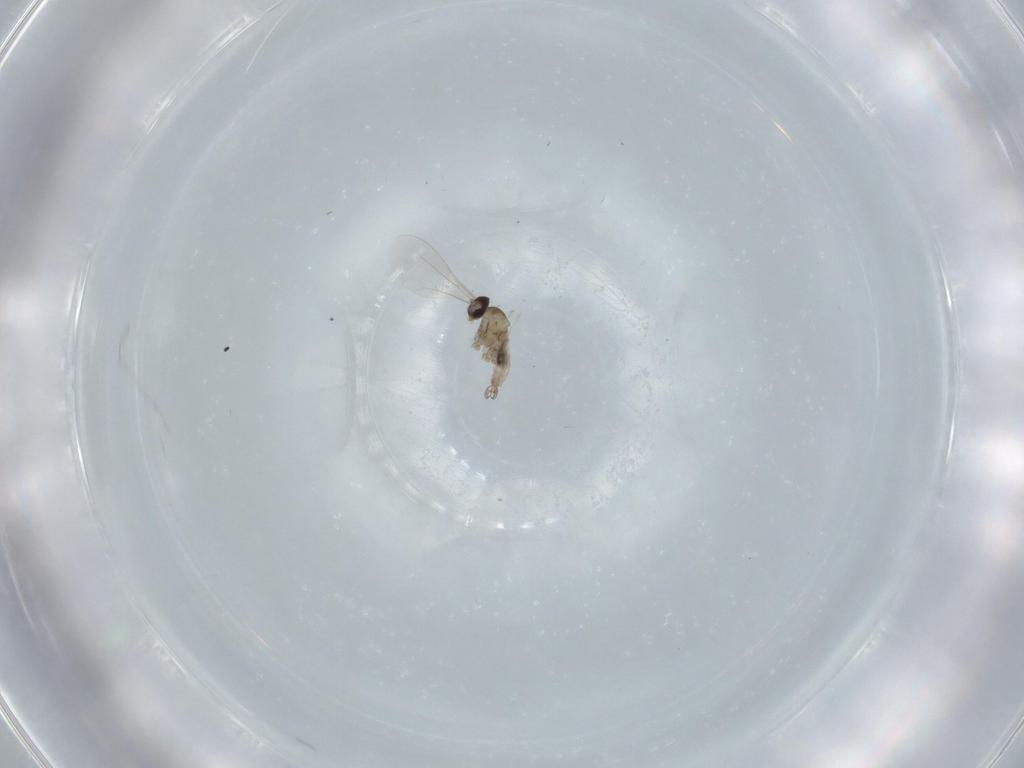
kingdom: Animalia
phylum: Arthropoda
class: Insecta
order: Diptera
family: Cecidomyiidae
